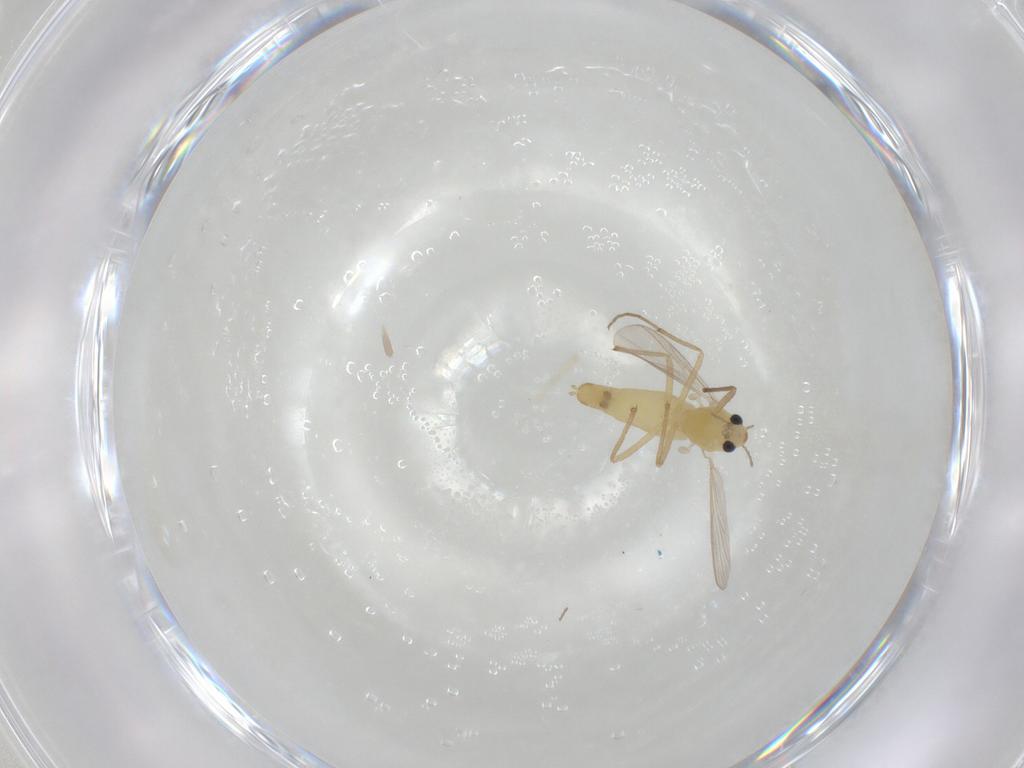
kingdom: Animalia
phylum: Arthropoda
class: Insecta
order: Diptera
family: Chironomidae
